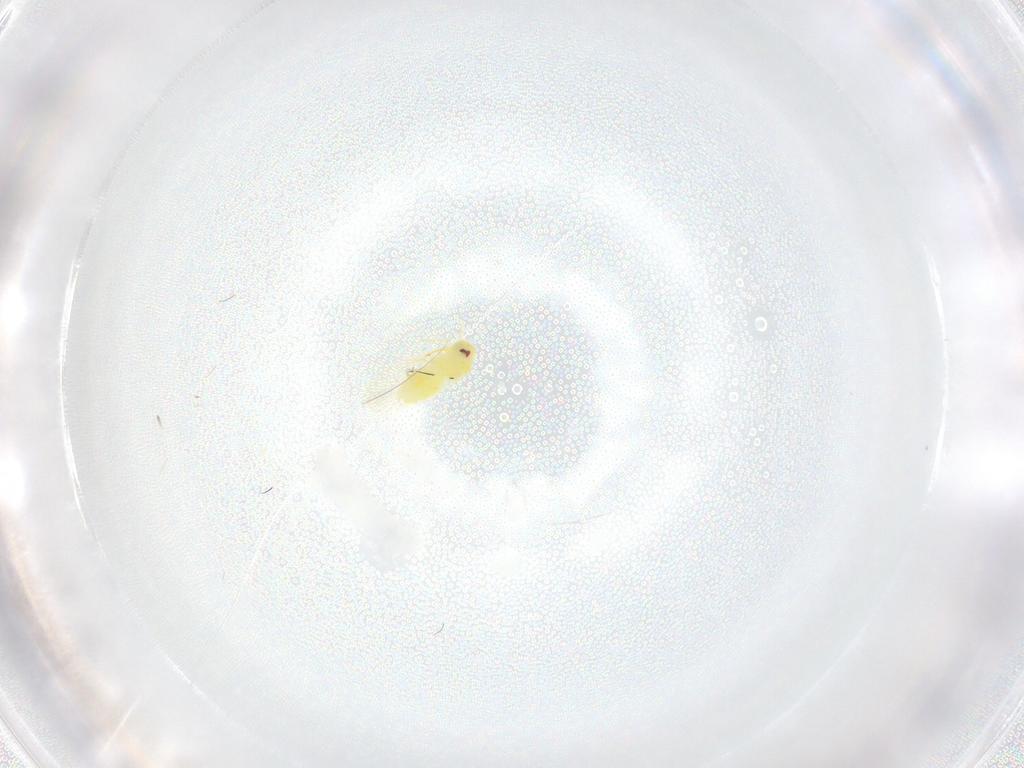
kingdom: Animalia
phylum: Arthropoda
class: Insecta
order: Hemiptera
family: Aleyrodidae
